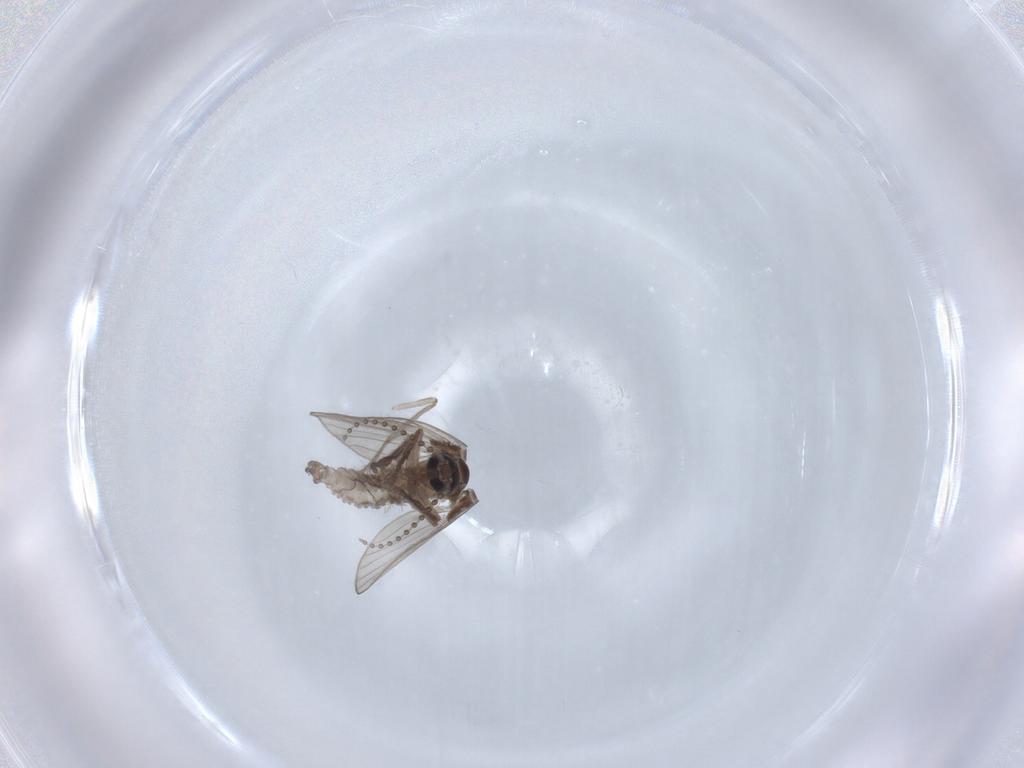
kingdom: Animalia
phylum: Arthropoda
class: Insecta
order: Diptera
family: Psychodidae
